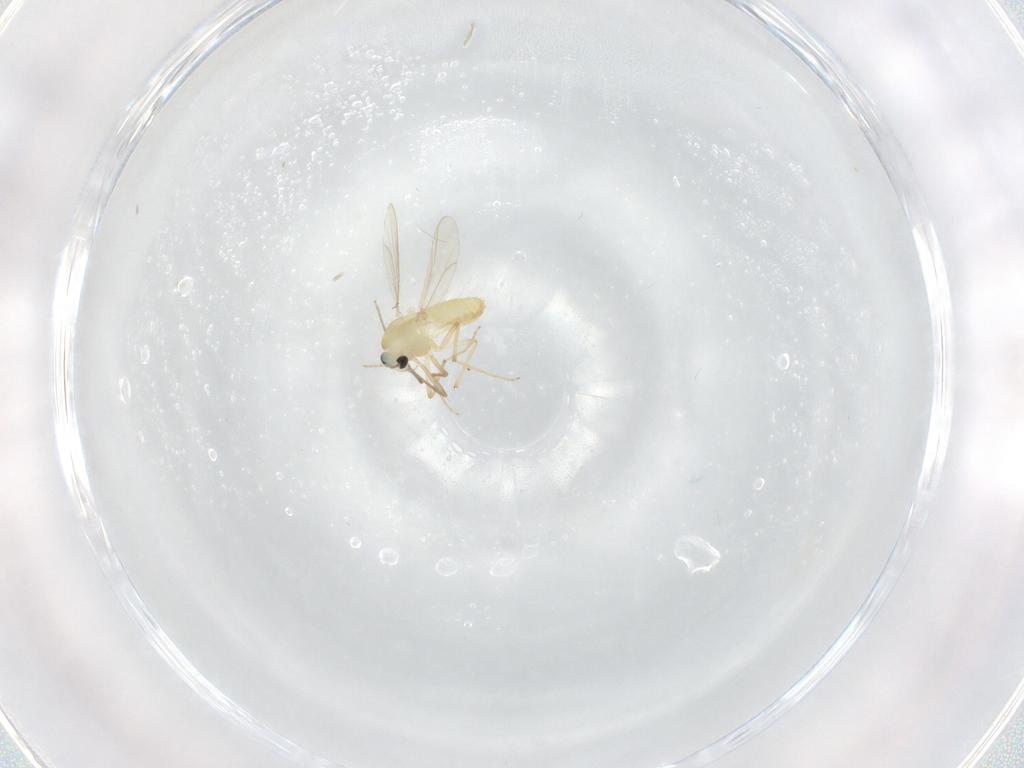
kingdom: Animalia
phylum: Arthropoda
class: Insecta
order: Diptera
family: Chironomidae
